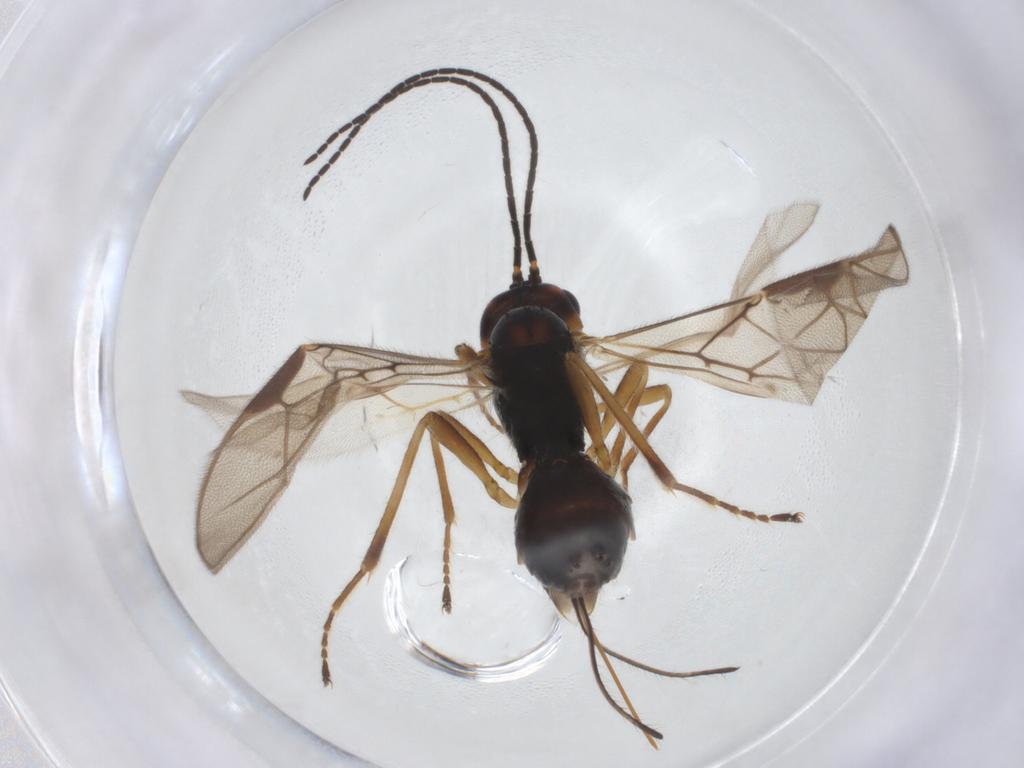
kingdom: Animalia
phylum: Arthropoda
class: Insecta
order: Hymenoptera
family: Braconidae
